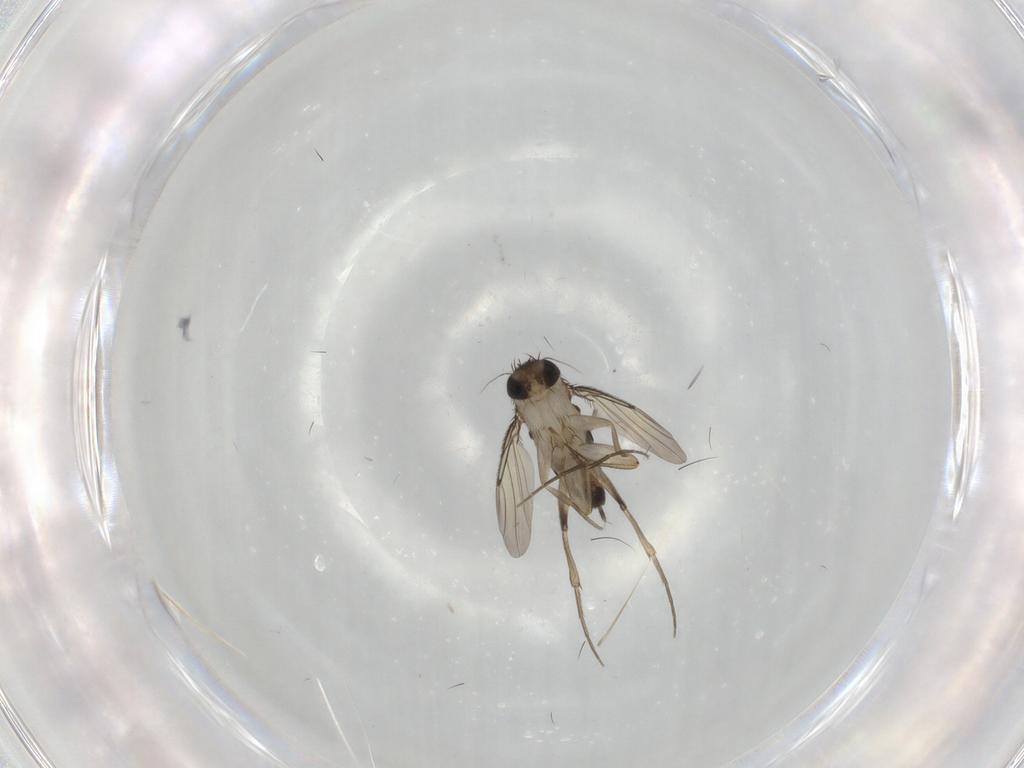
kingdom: Animalia
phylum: Arthropoda
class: Insecta
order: Diptera
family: Phoridae
